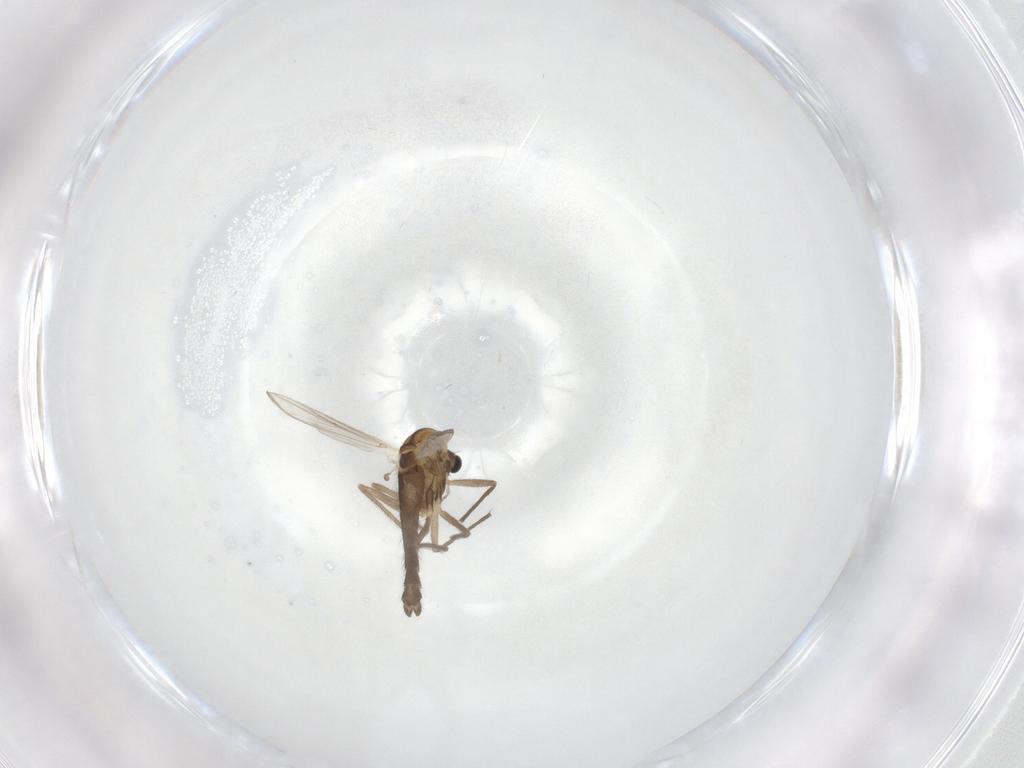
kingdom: Animalia
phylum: Arthropoda
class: Insecta
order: Diptera
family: Chironomidae
